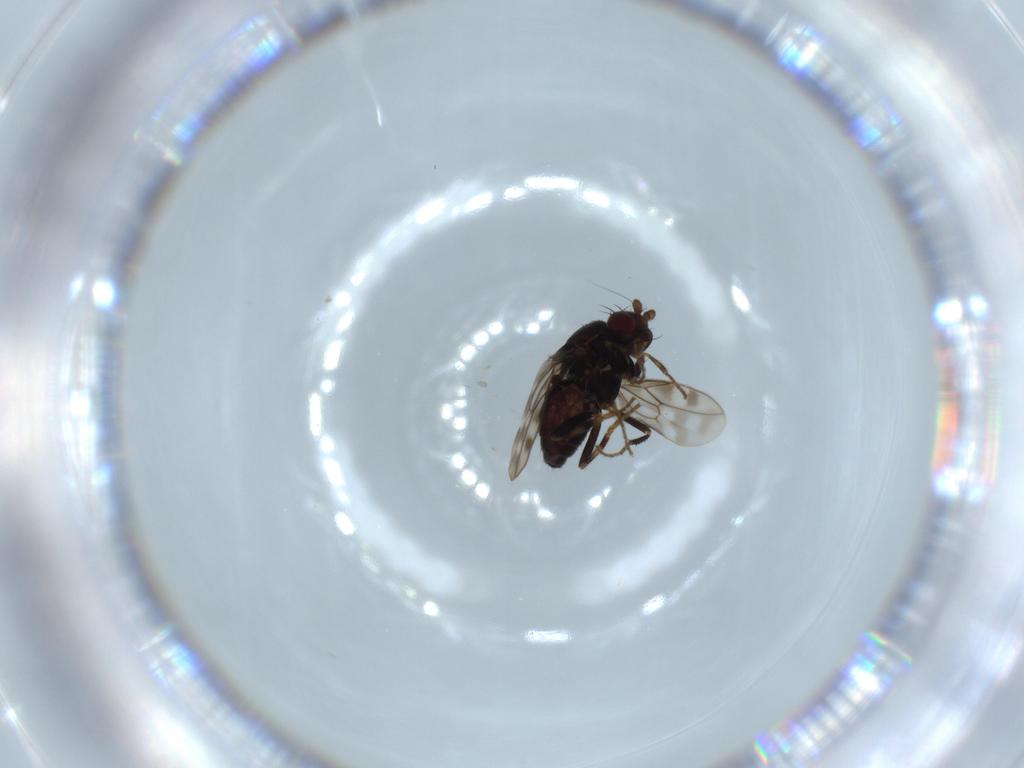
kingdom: Animalia
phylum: Arthropoda
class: Insecta
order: Diptera
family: Sphaeroceridae
